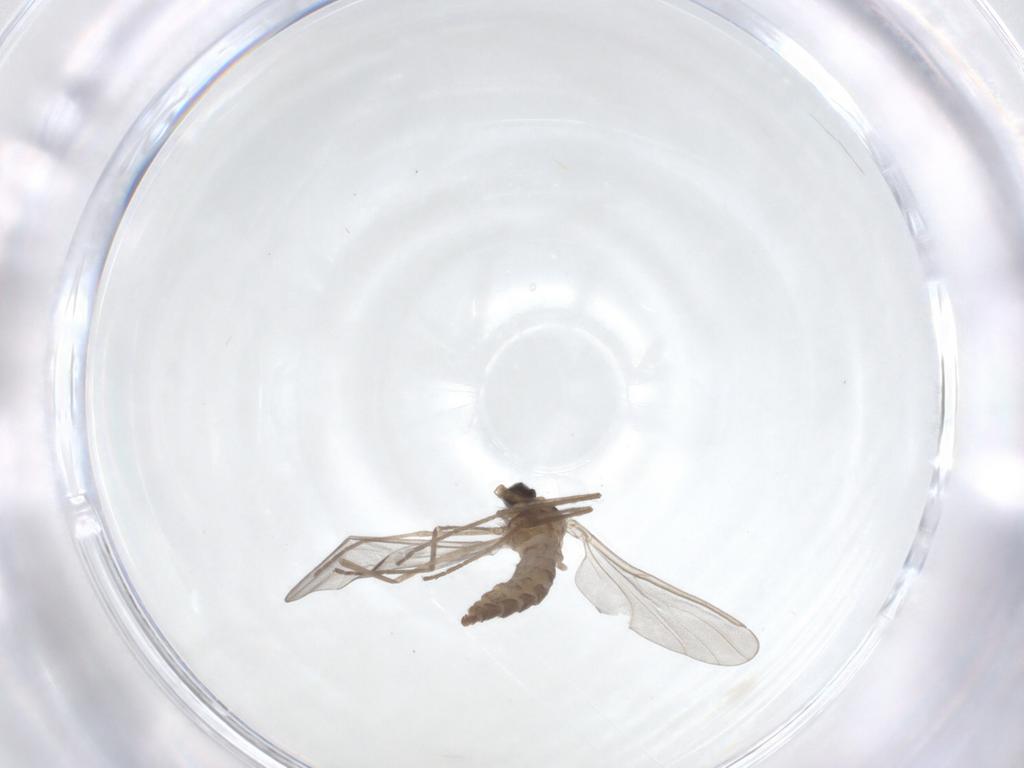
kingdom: Animalia
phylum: Arthropoda
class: Insecta
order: Diptera
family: Cecidomyiidae
